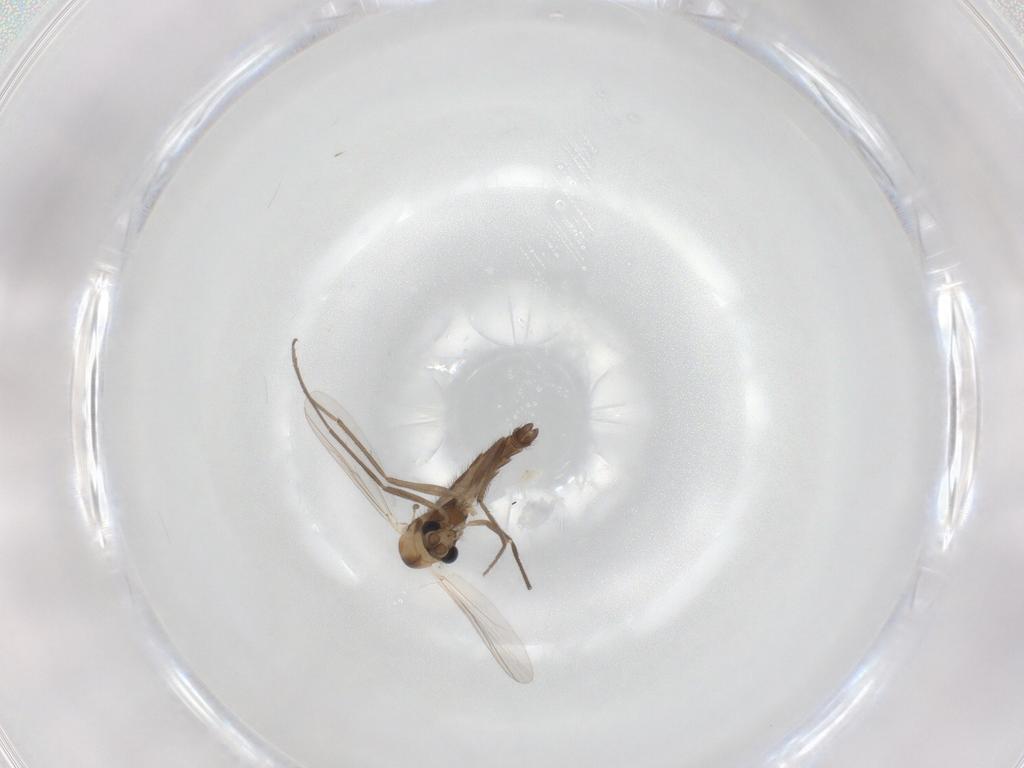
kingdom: Animalia
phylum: Arthropoda
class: Insecta
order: Diptera
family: Chironomidae
